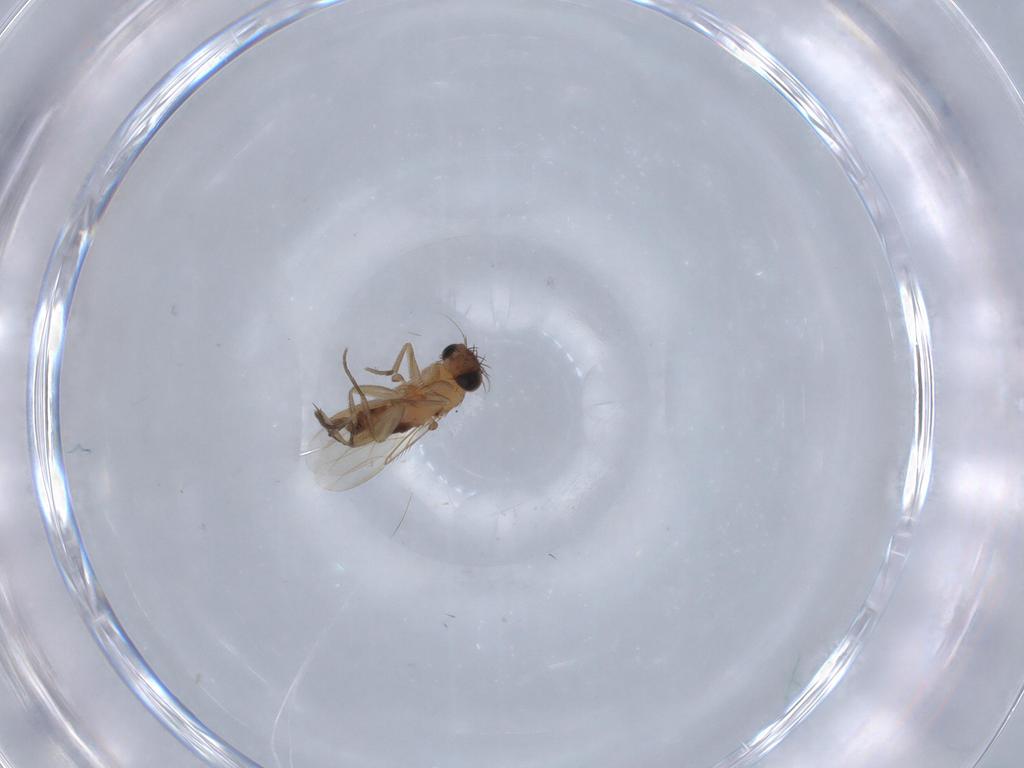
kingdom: Animalia
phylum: Arthropoda
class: Insecta
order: Diptera
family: Phoridae
